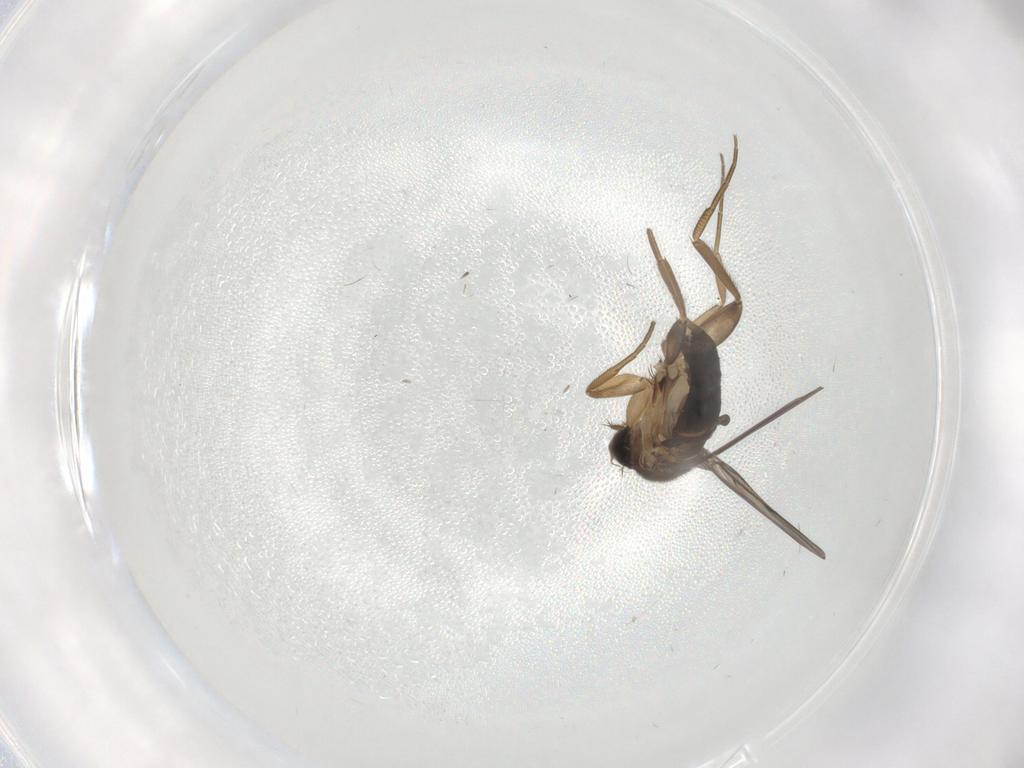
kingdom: Animalia
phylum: Arthropoda
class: Insecta
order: Diptera
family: Phoridae
